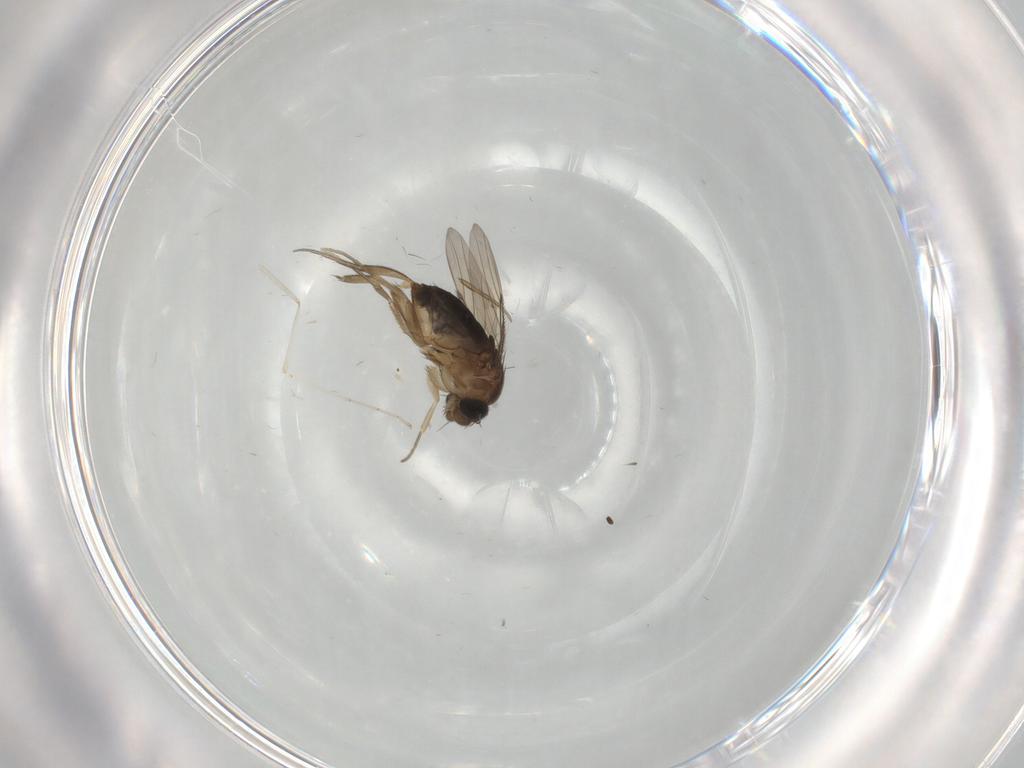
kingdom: Animalia
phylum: Arthropoda
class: Insecta
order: Diptera
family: Phoridae
